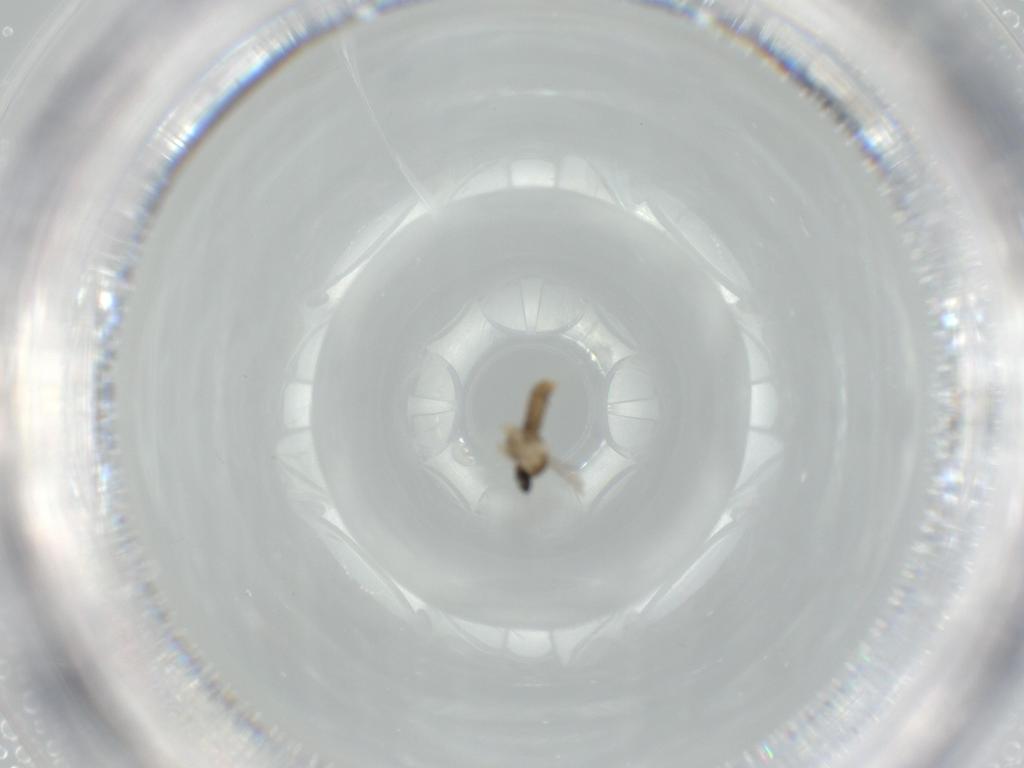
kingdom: Animalia
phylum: Arthropoda
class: Insecta
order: Diptera
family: Cecidomyiidae
